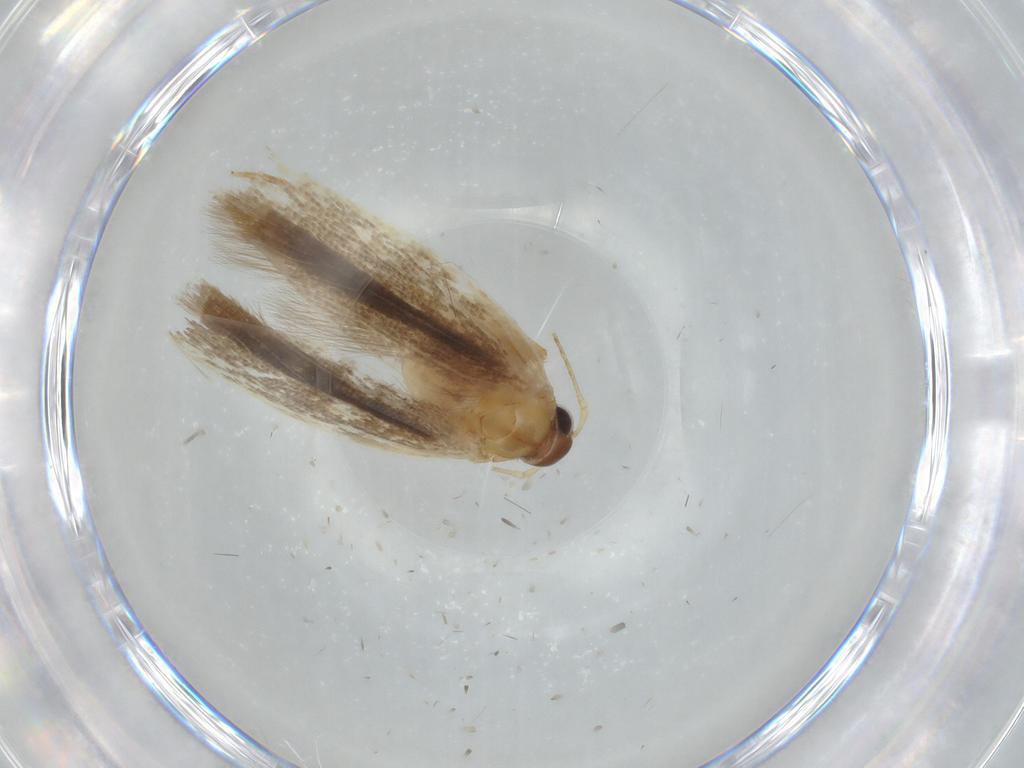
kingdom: Animalia
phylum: Arthropoda
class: Insecta
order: Lepidoptera
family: Gelechiidae
